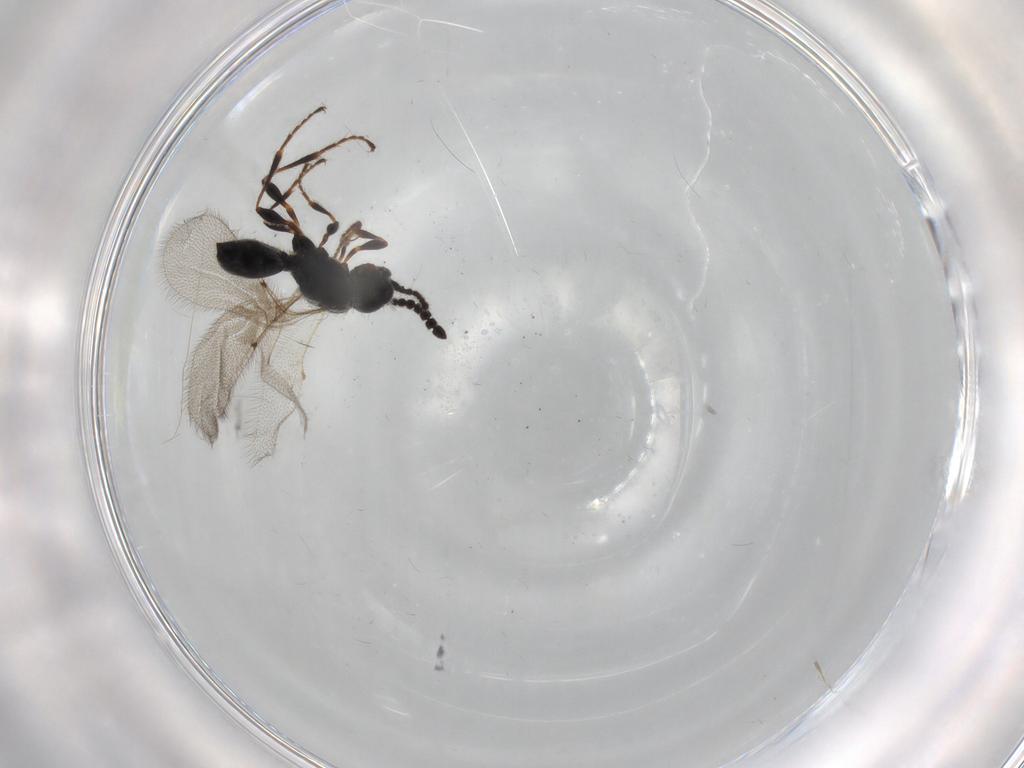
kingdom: Animalia
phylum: Arthropoda
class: Insecta
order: Hymenoptera
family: Diapriidae
